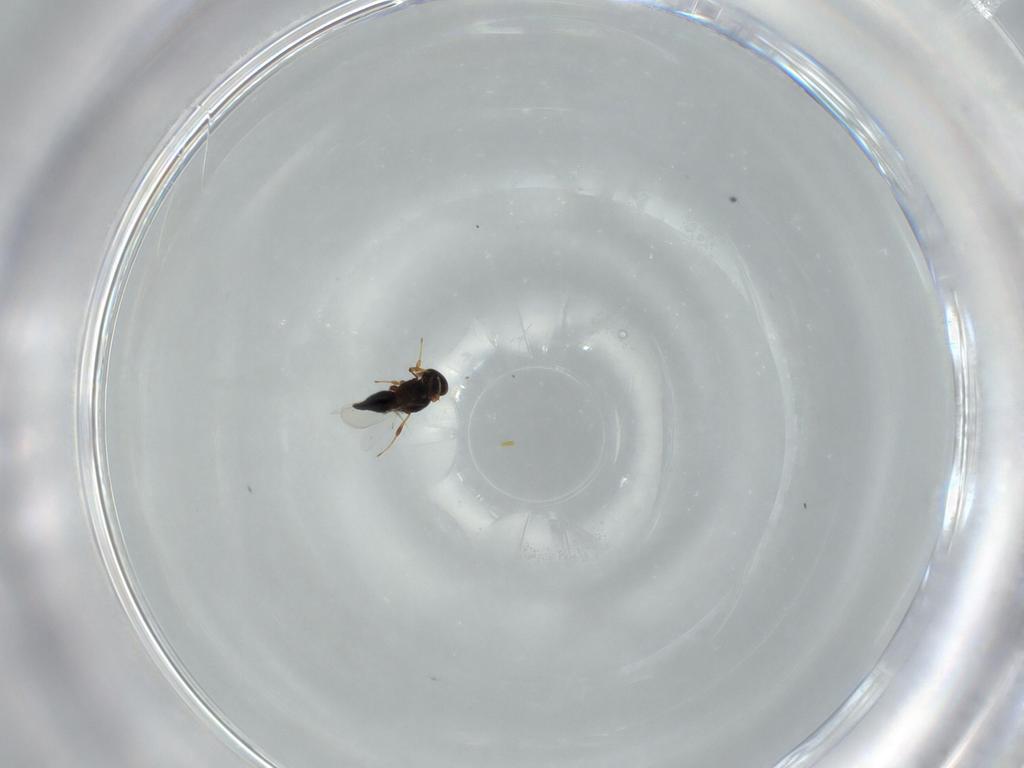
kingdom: Animalia
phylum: Arthropoda
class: Insecta
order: Hymenoptera
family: Platygastridae
